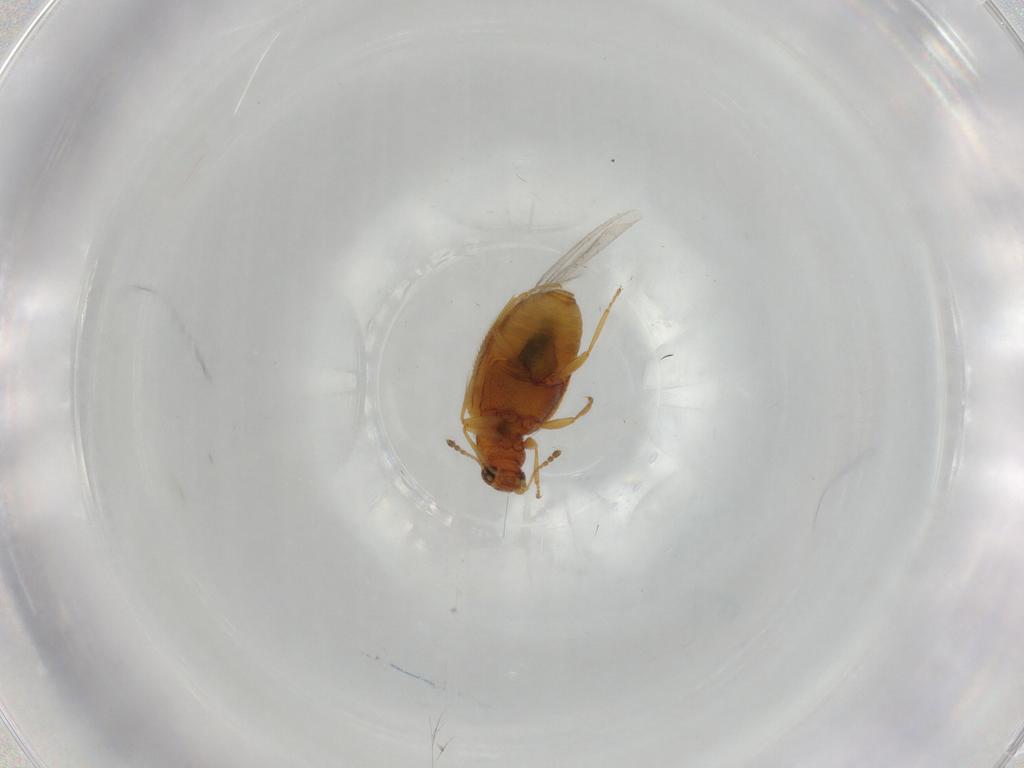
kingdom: Animalia
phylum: Arthropoda
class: Insecta
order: Coleoptera
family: Latridiidae
